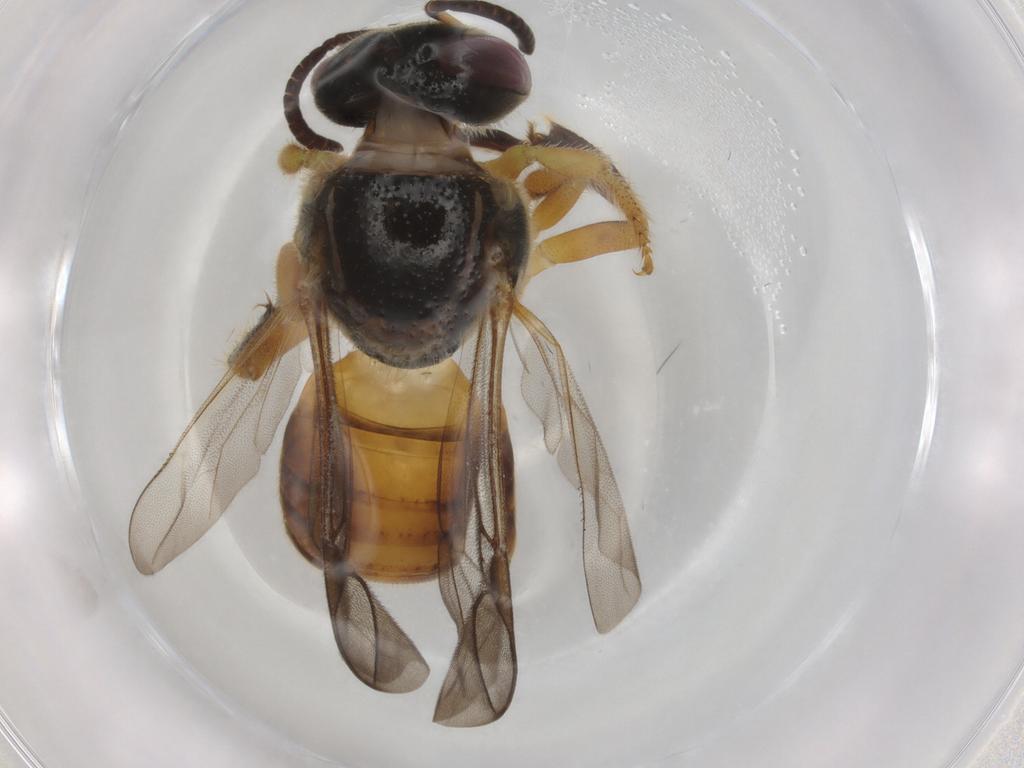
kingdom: Animalia
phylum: Arthropoda
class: Insecta
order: Hymenoptera
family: Apidae
